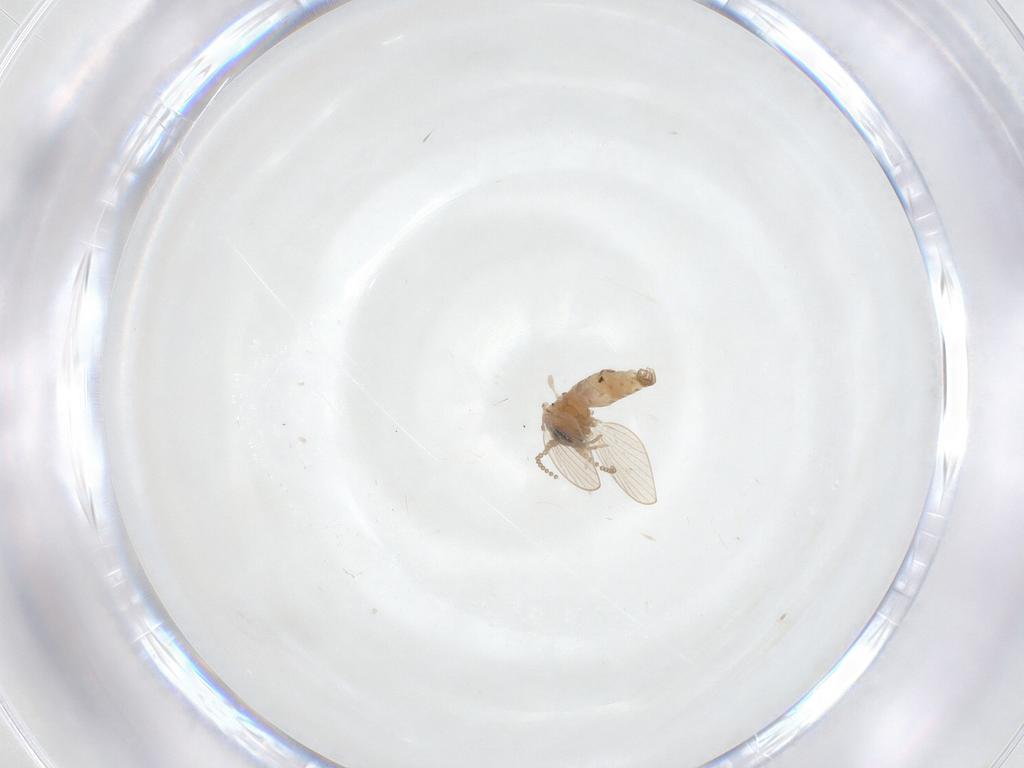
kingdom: Animalia
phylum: Arthropoda
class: Insecta
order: Diptera
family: Psychodidae
